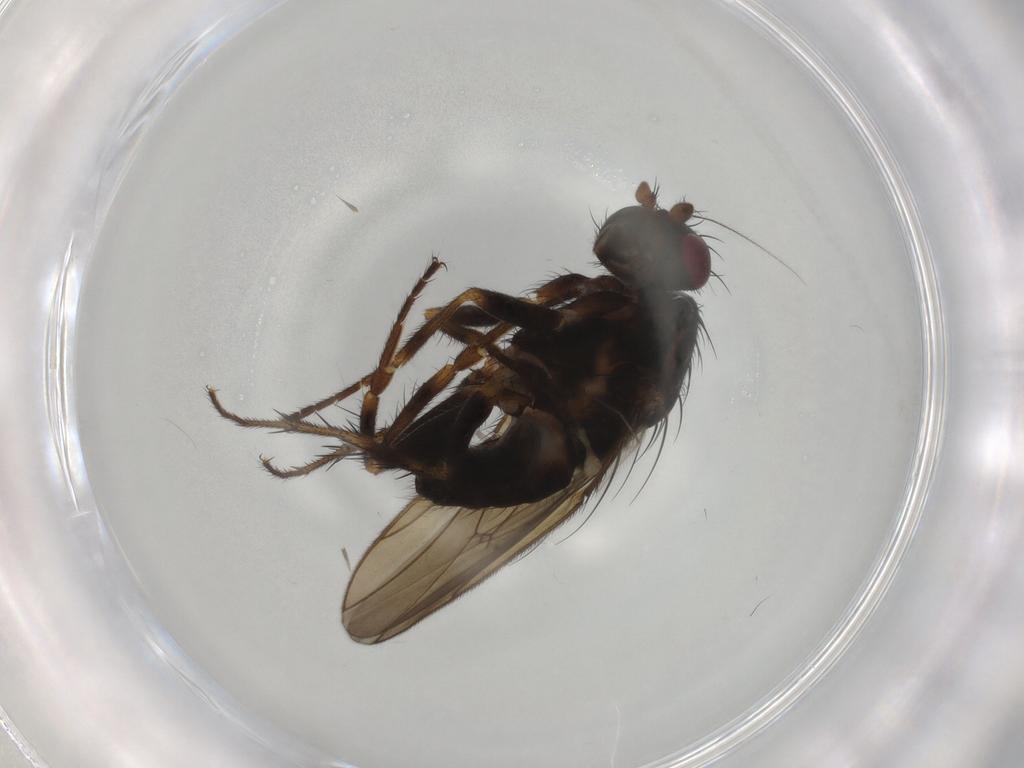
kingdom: Animalia
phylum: Arthropoda
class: Insecta
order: Diptera
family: Sphaeroceridae
